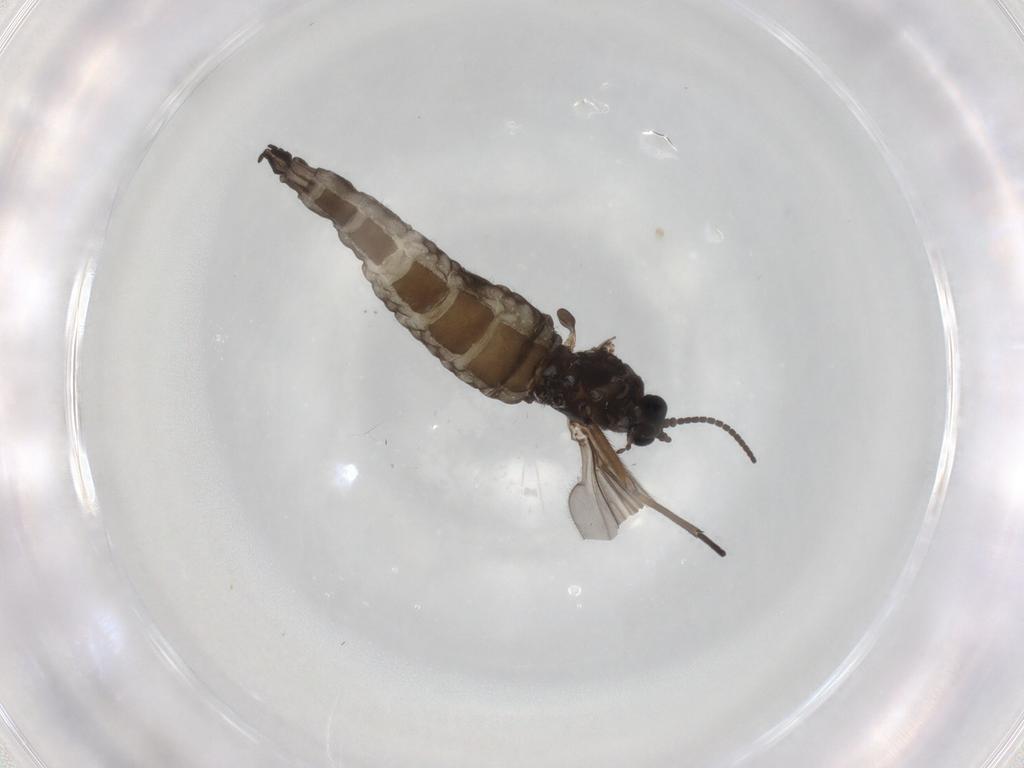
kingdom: Animalia
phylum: Arthropoda
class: Insecta
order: Diptera
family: Sciaridae
